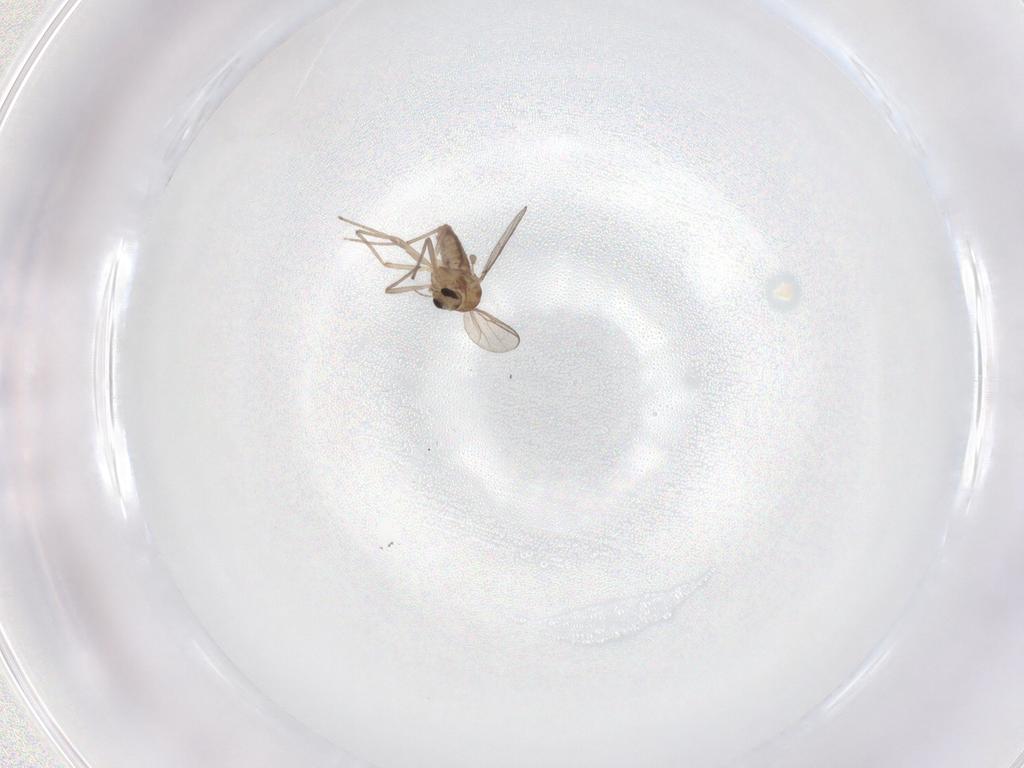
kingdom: Animalia
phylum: Arthropoda
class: Insecta
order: Diptera
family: Chironomidae
